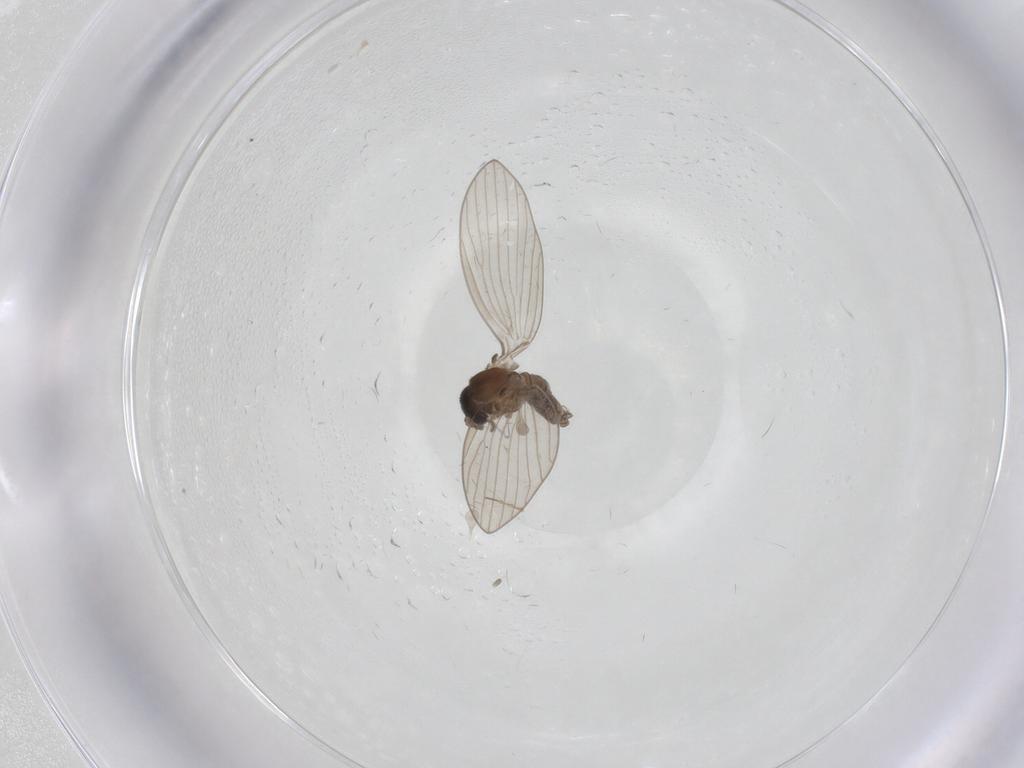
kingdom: Animalia
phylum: Arthropoda
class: Insecta
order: Diptera
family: Psychodidae
